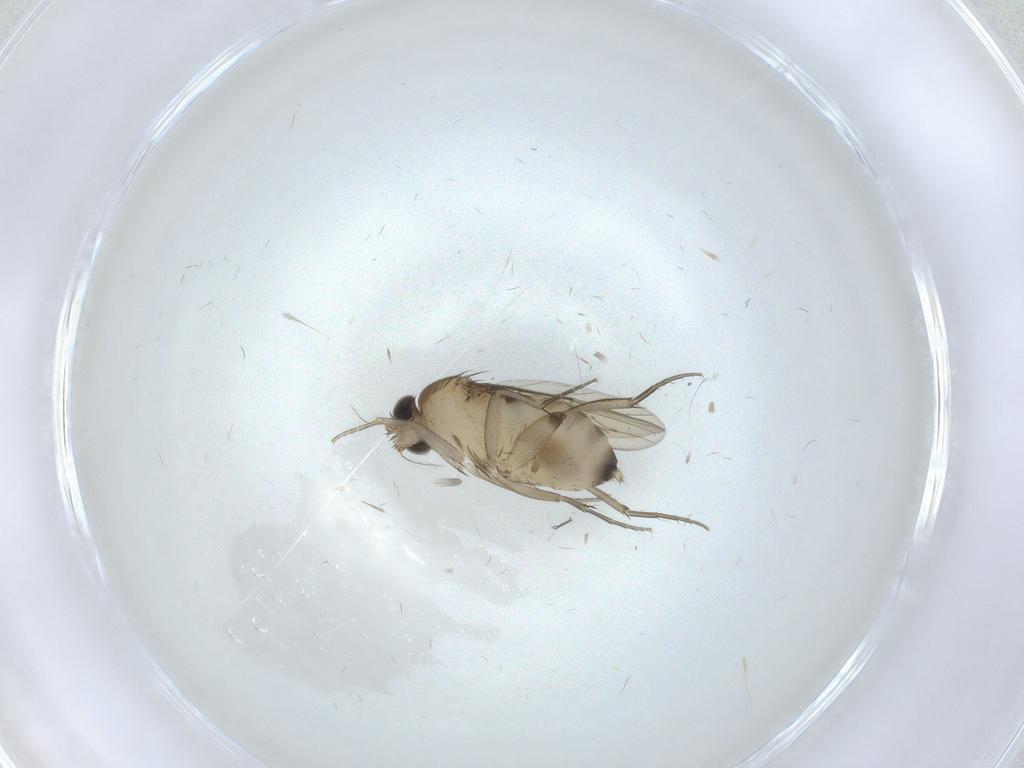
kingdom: Animalia
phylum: Arthropoda
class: Insecta
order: Diptera
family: Phoridae
